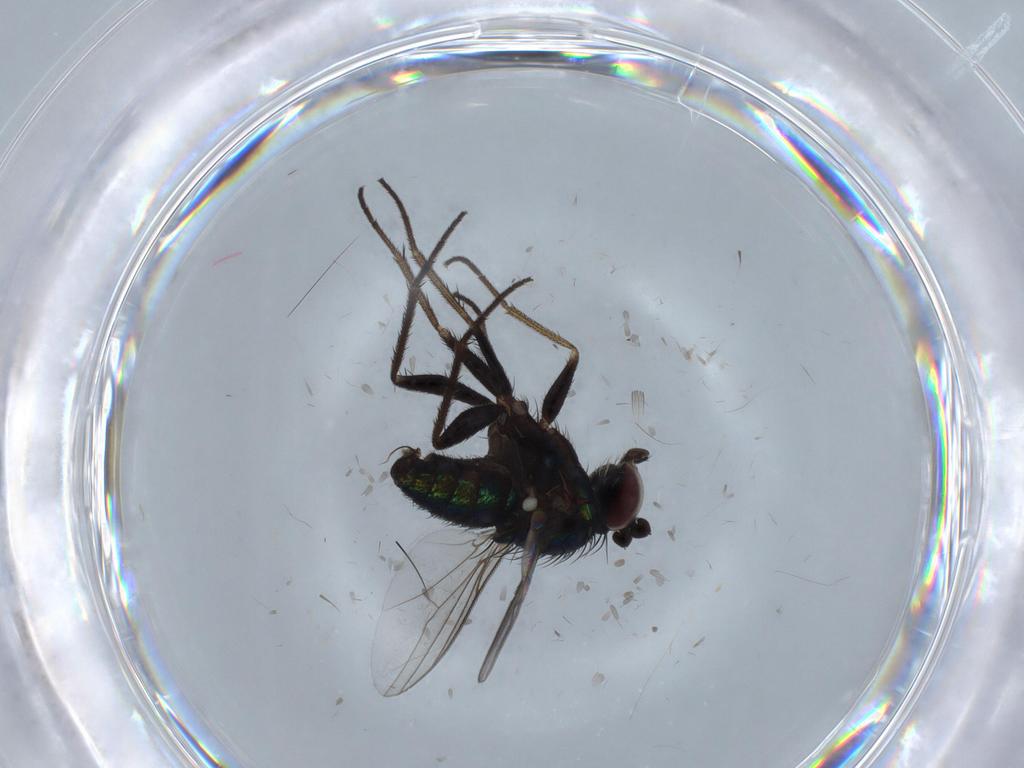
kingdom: Animalia
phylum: Arthropoda
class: Insecta
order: Diptera
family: Dolichopodidae
